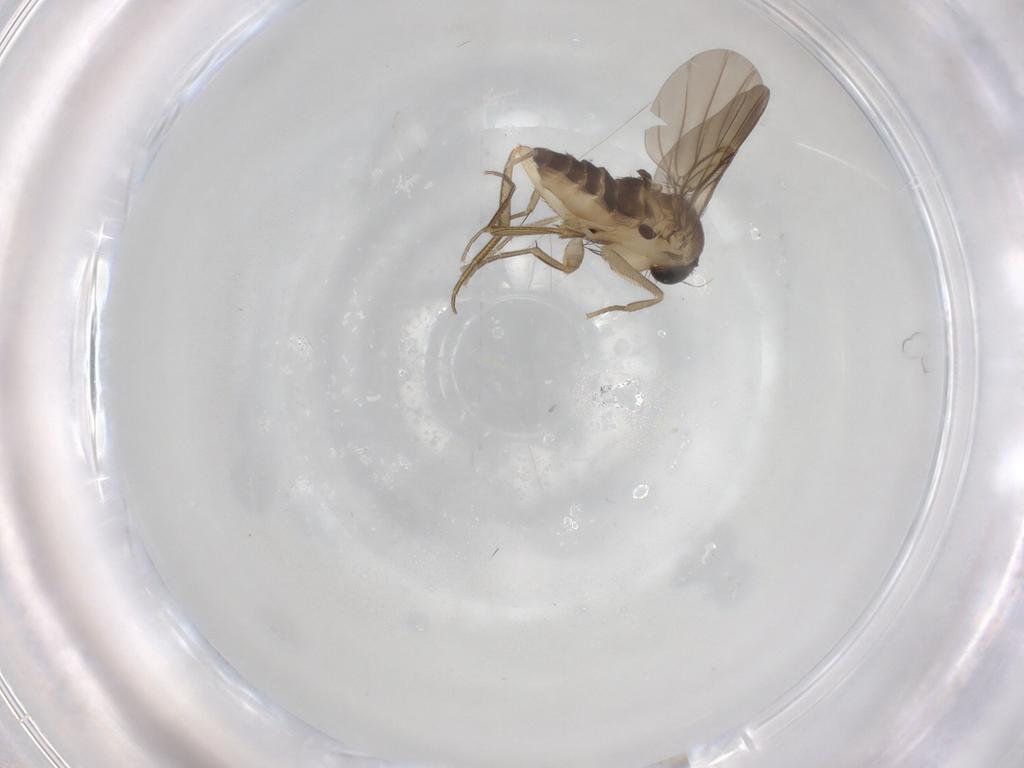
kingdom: Animalia
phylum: Arthropoda
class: Insecta
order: Diptera
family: Phoridae
